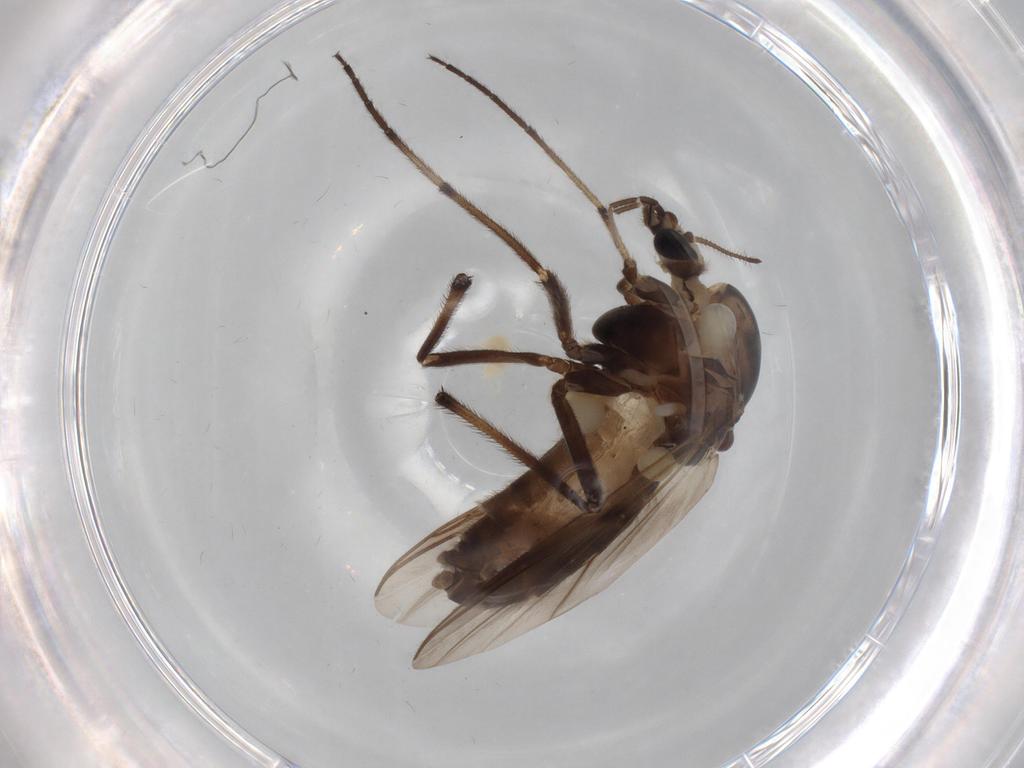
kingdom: Animalia
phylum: Arthropoda
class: Insecta
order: Diptera
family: Chironomidae
